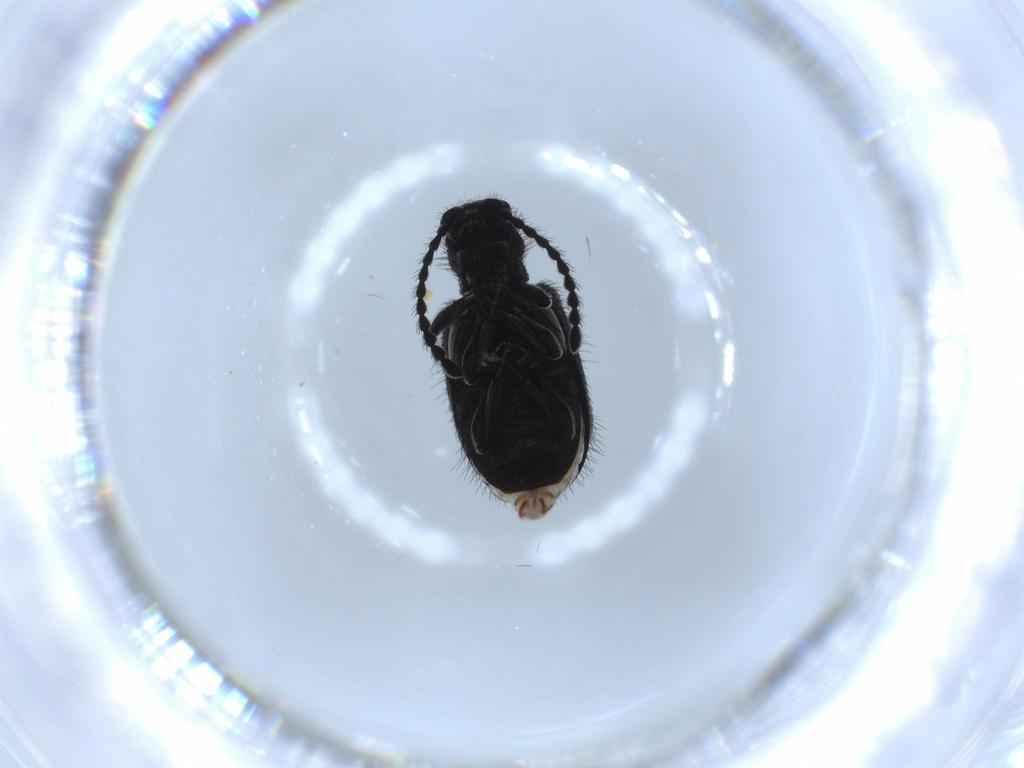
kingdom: Animalia
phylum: Arthropoda
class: Insecta
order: Coleoptera
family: Ptinidae
